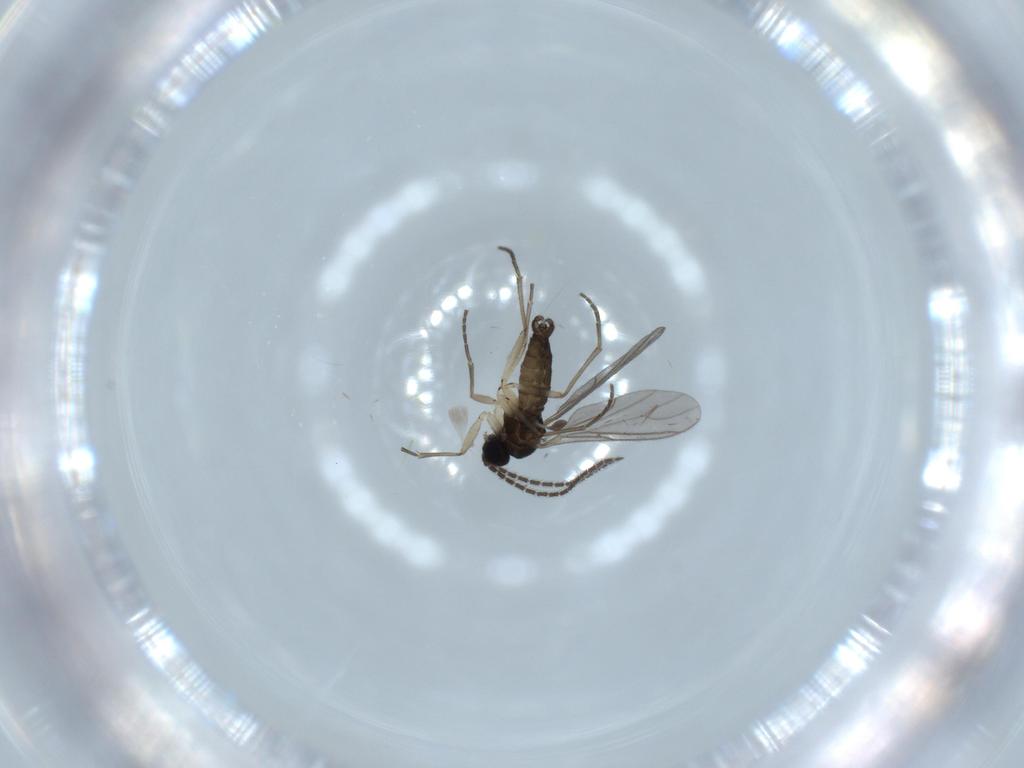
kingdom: Animalia
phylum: Arthropoda
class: Insecta
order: Diptera
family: Sciaridae
